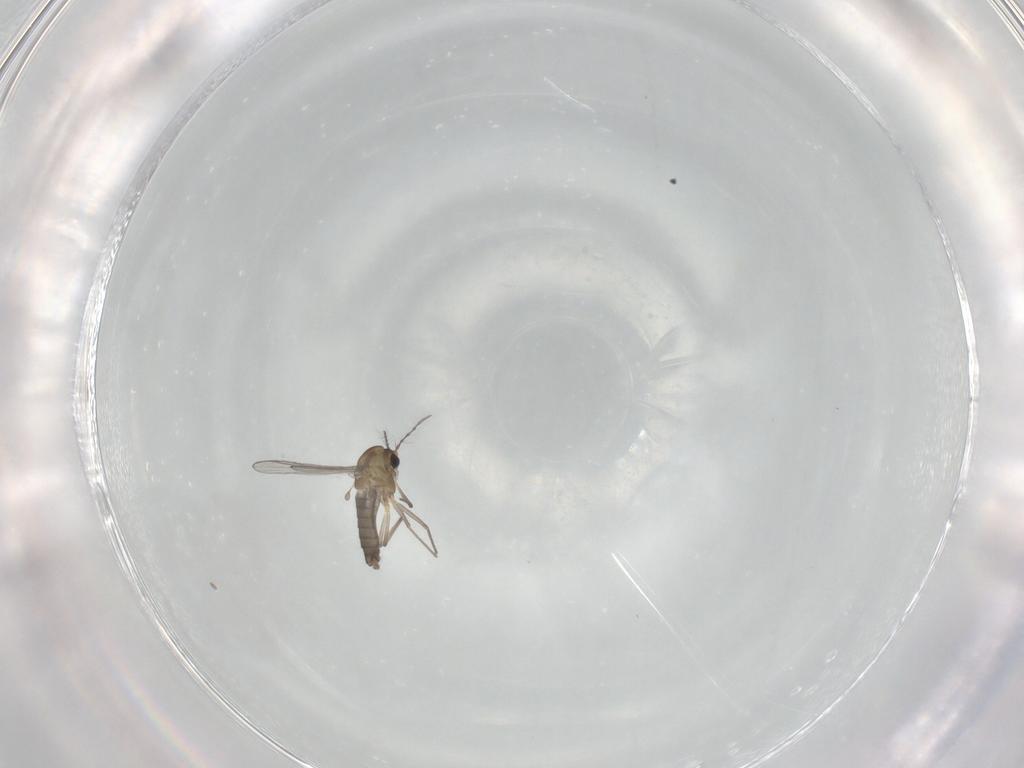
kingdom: Animalia
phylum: Arthropoda
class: Insecta
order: Diptera
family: Chironomidae
